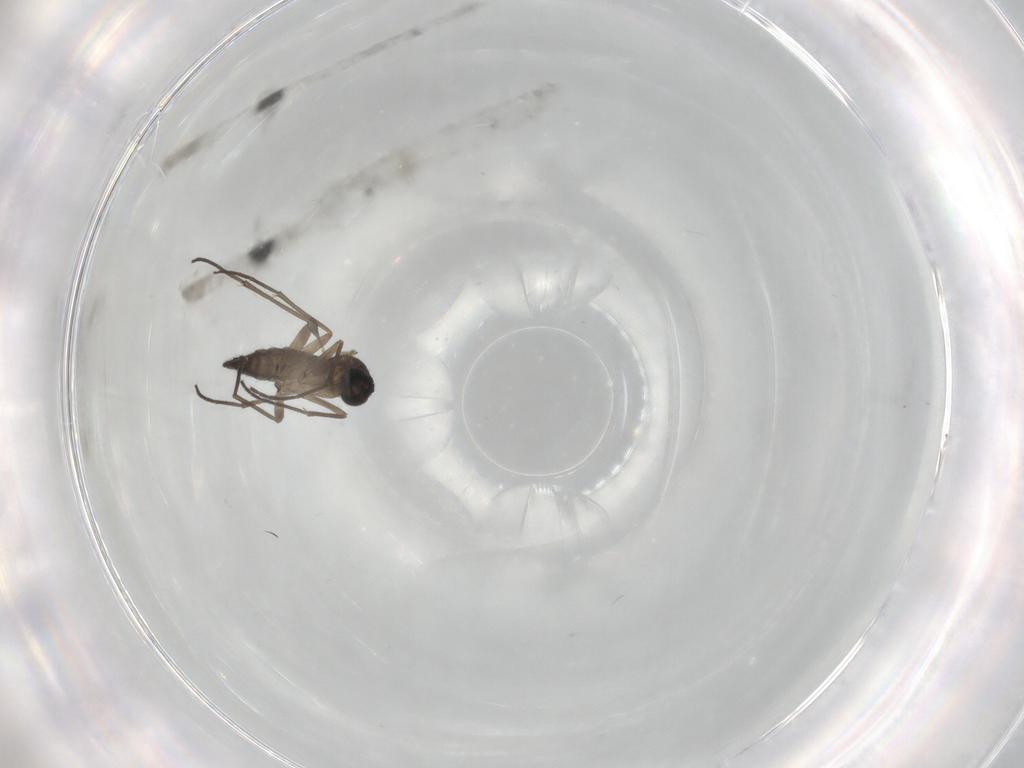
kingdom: Animalia
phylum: Arthropoda
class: Insecta
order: Diptera
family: Sciaridae
